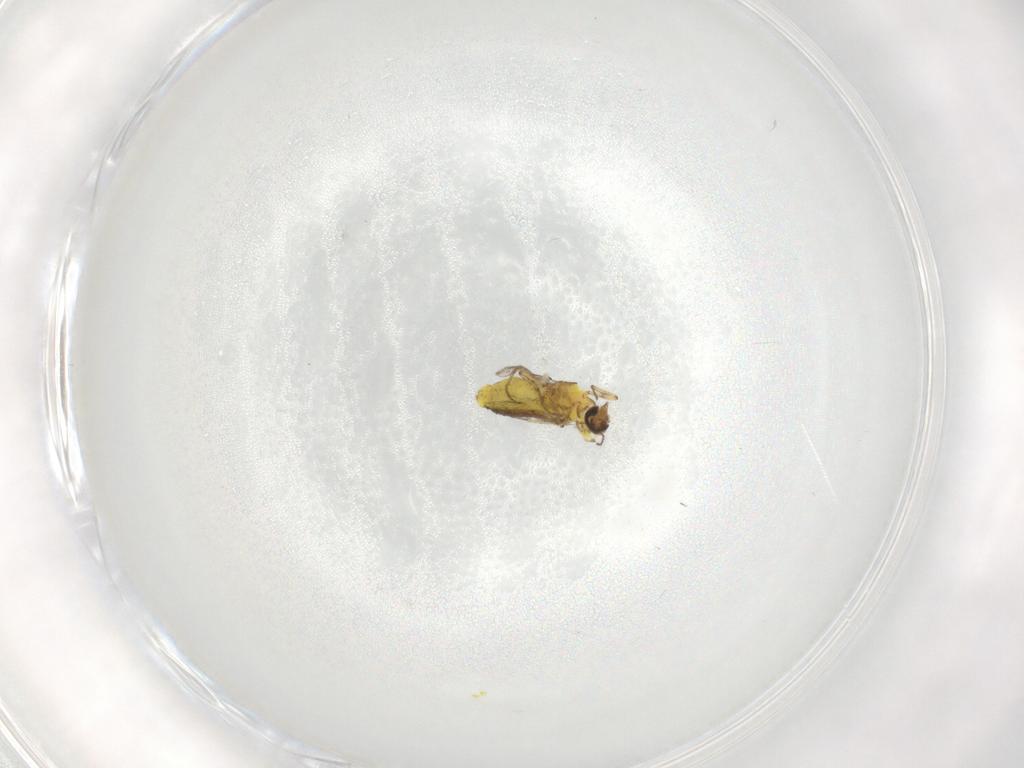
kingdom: Animalia
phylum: Arthropoda
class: Insecta
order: Diptera
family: Ceratopogonidae
